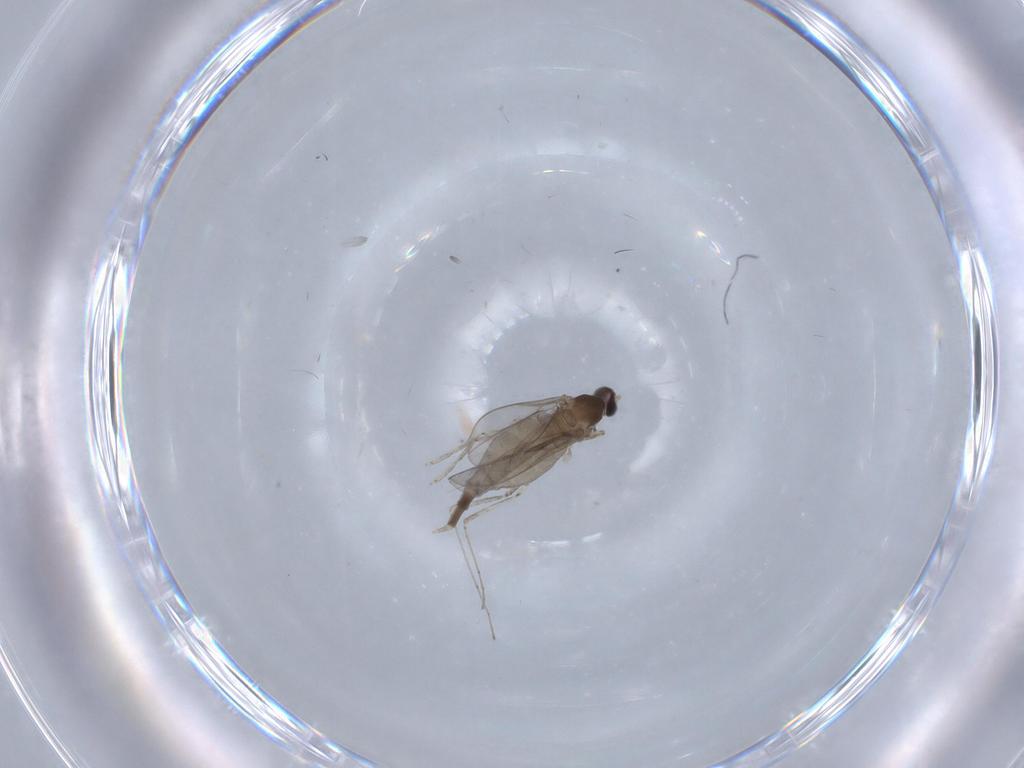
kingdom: Animalia
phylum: Arthropoda
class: Insecta
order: Diptera
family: Cecidomyiidae
